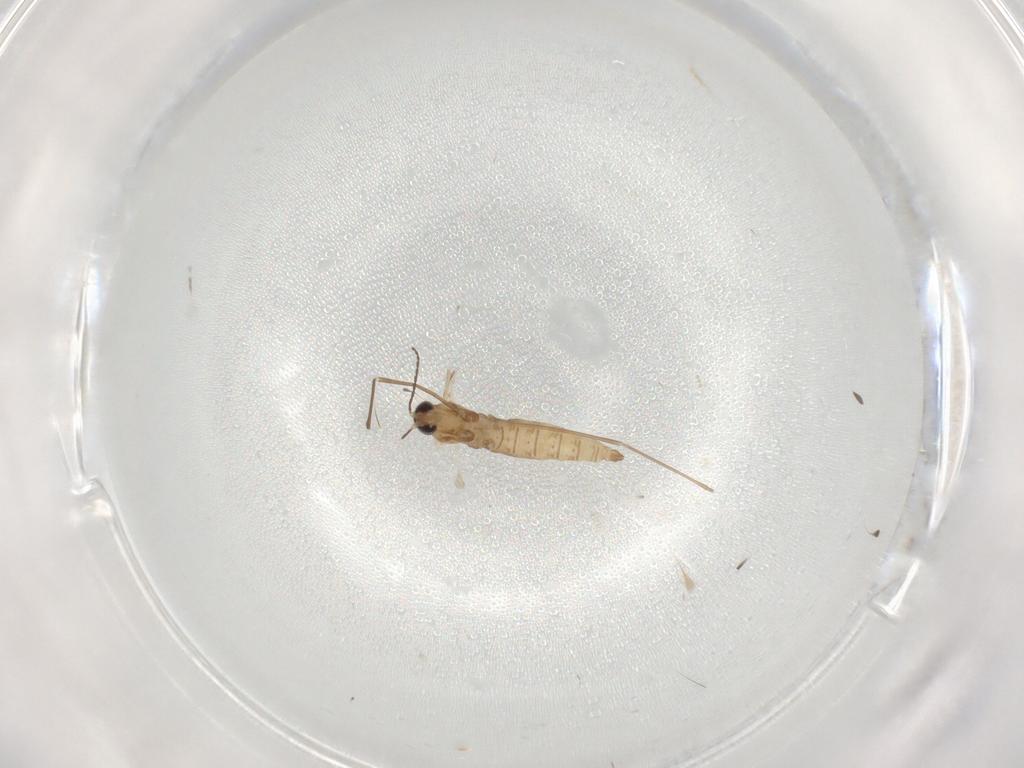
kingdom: Animalia
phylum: Arthropoda
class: Insecta
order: Diptera
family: Cecidomyiidae
